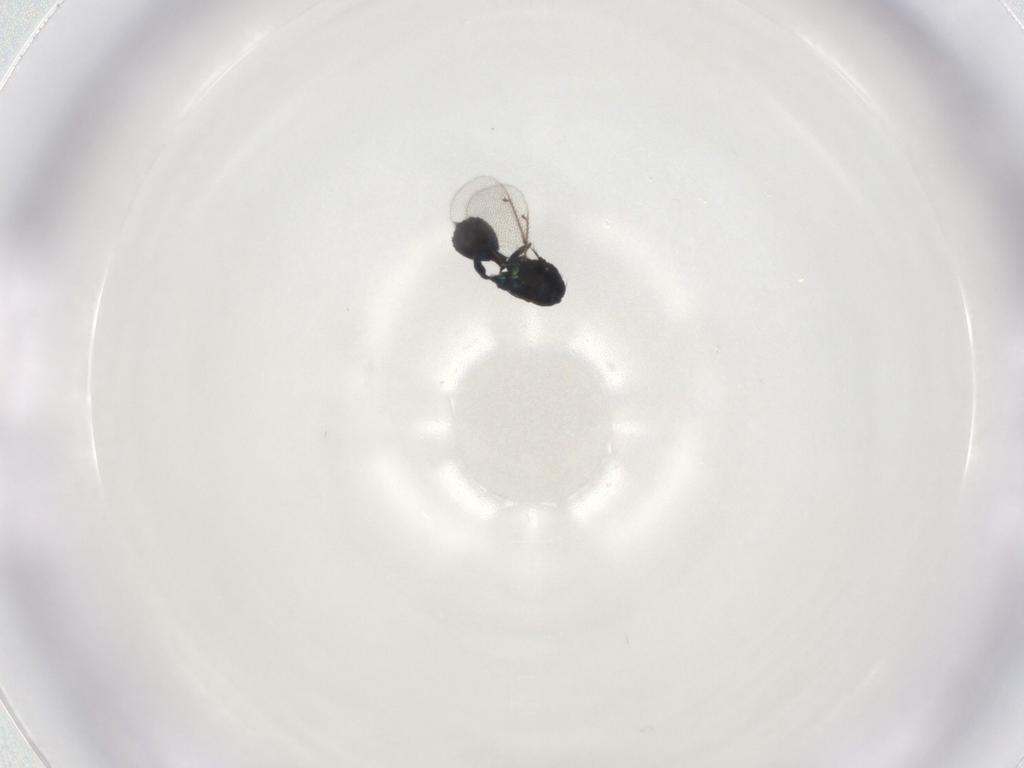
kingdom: Animalia
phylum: Arthropoda
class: Insecta
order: Hymenoptera
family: Eulophidae
